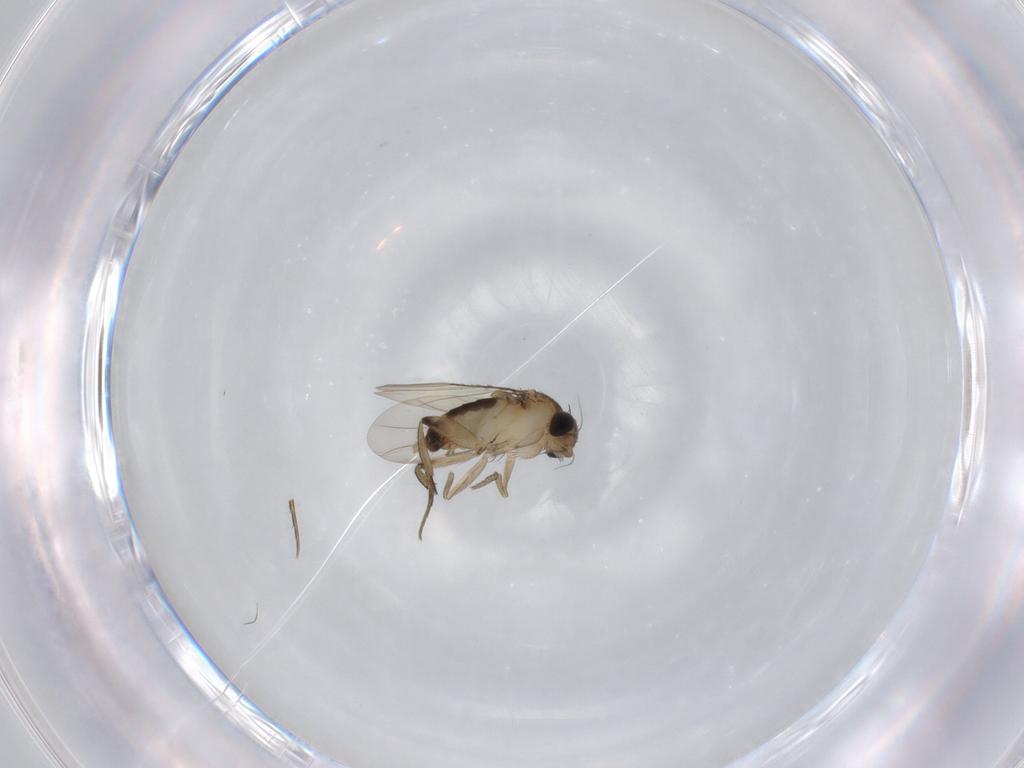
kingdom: Animalia
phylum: Arthropoda
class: Insecta
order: Diptera
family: Phoridae
